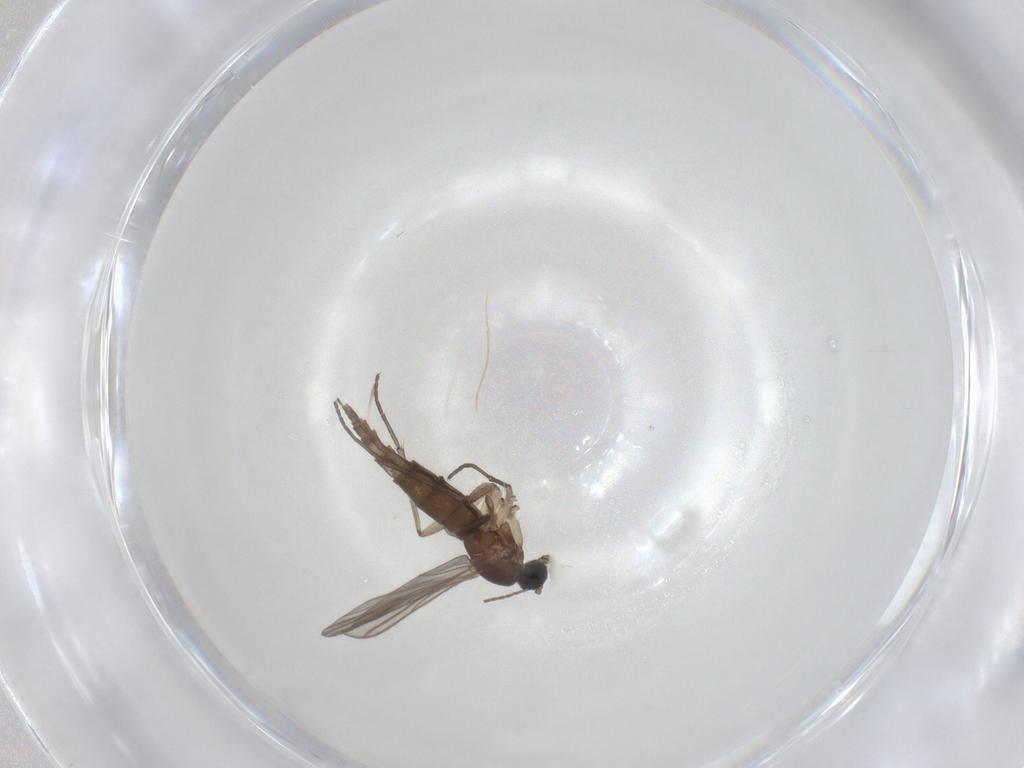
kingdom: Animalia
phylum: Arthropoda
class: Insecta
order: Diptera
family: Sciaridae
